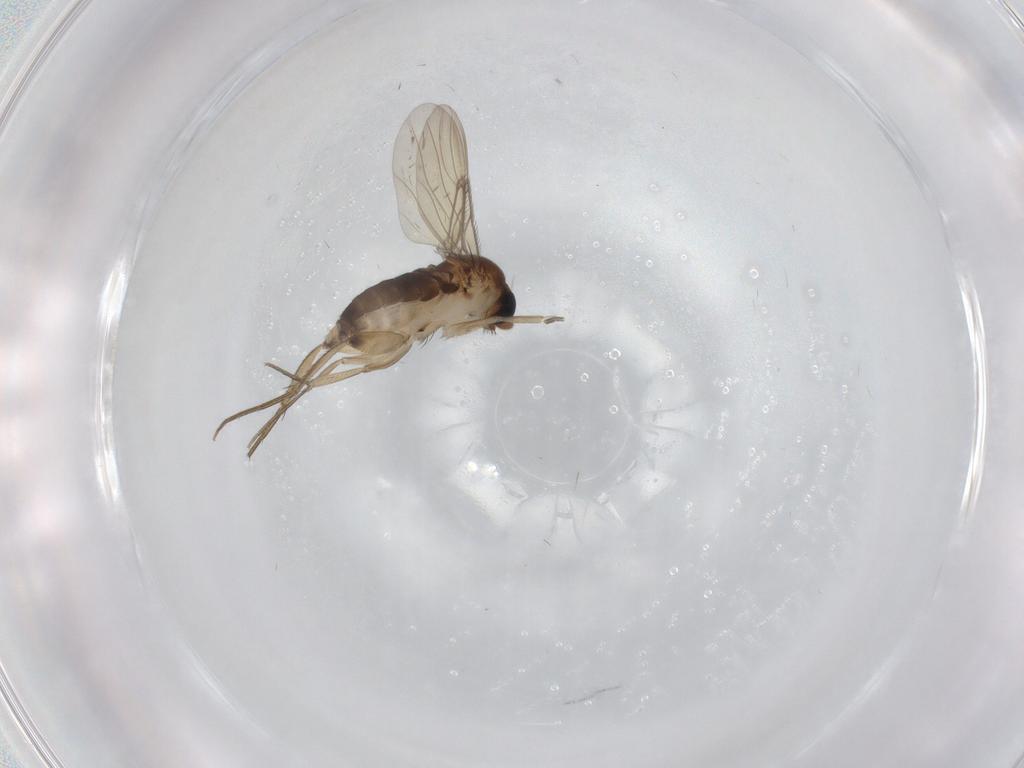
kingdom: Animalia
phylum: Arthropoda
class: Insecta
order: Diptera
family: Phoridae
